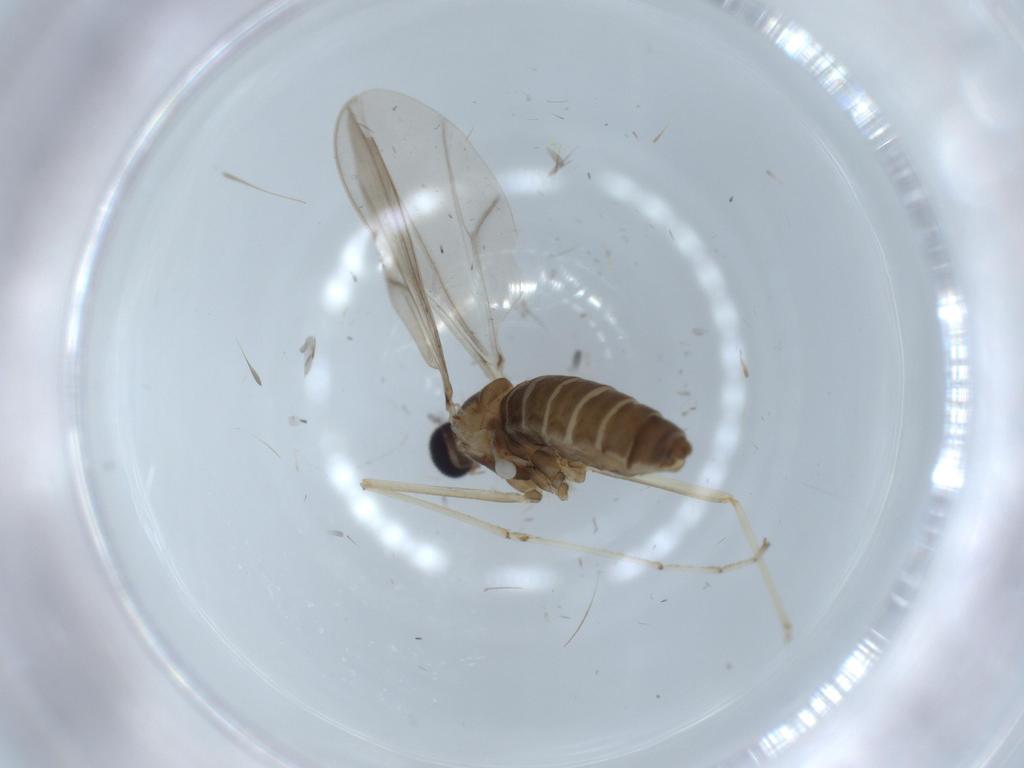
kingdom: Animalia
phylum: Arthropoda
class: Insecta
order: Diptera
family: Cecidomyiidae
